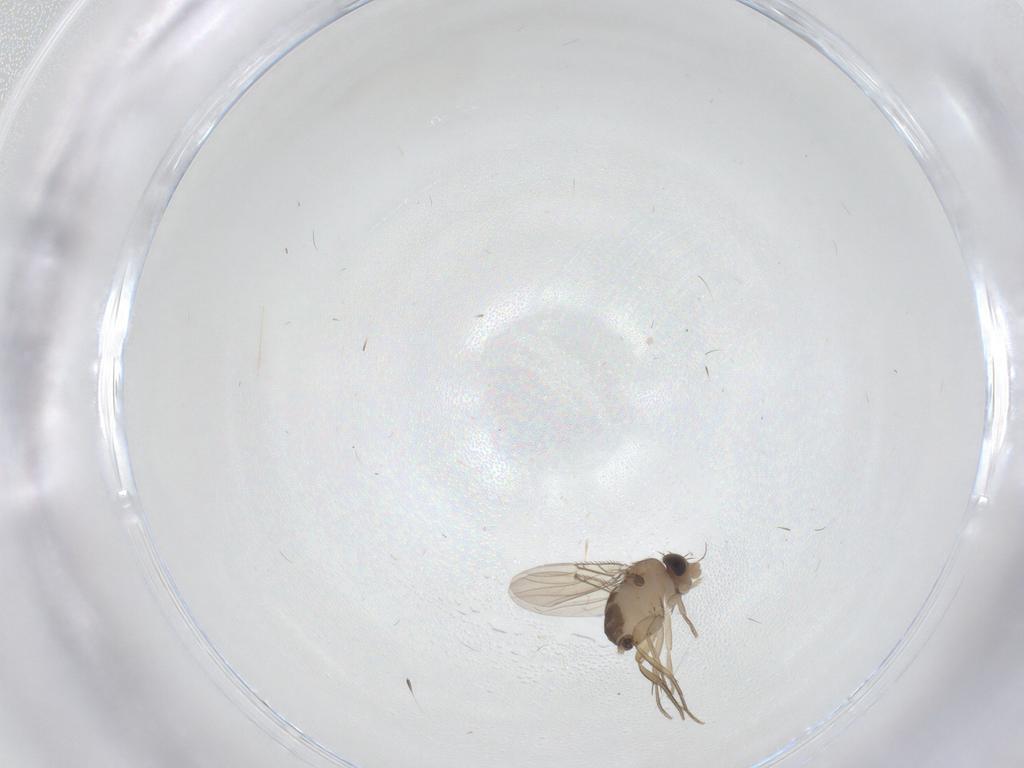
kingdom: Animalia
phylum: Arthropoda
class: Insecta
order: Diptera
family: Phoridae
